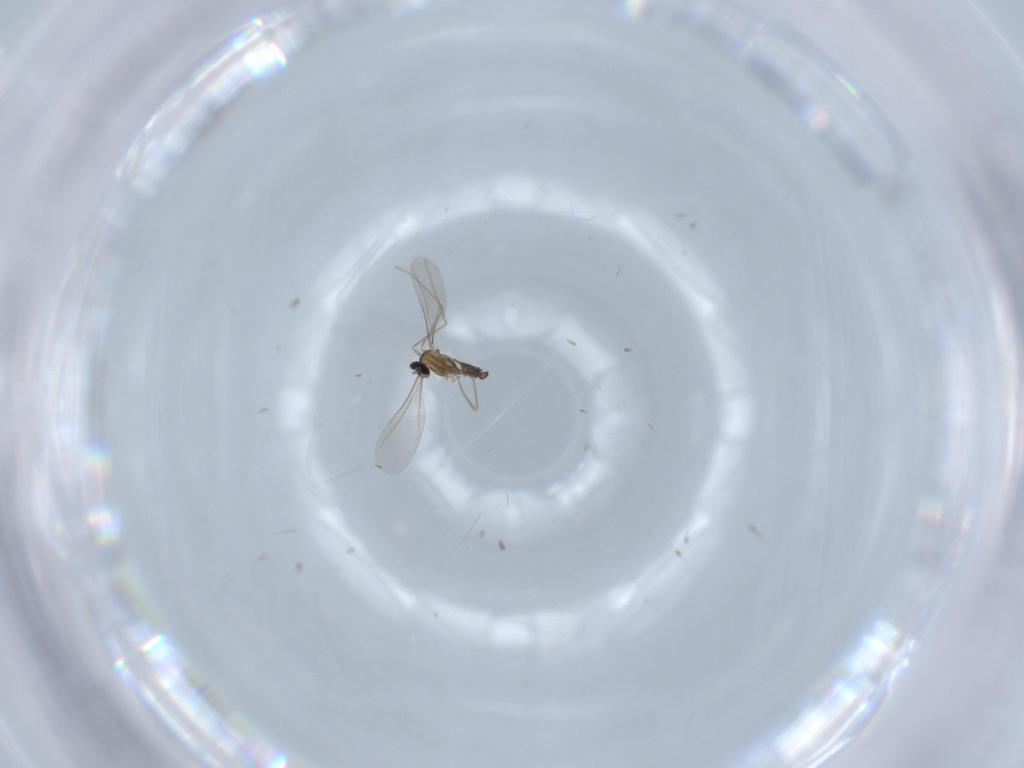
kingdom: Animalia
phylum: Arthropoda
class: Insecta
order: Diptera
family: Cecidomyiidae
